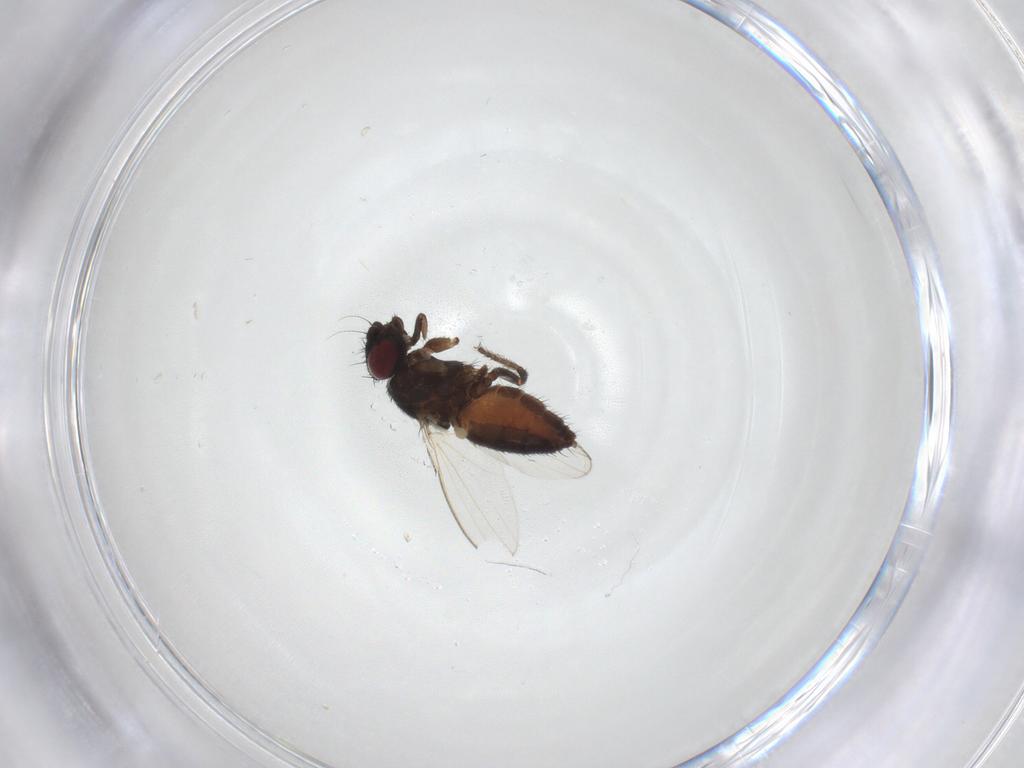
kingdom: Animalia
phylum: Arthropoda
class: Insecta
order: Diptera
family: Milichiidae
